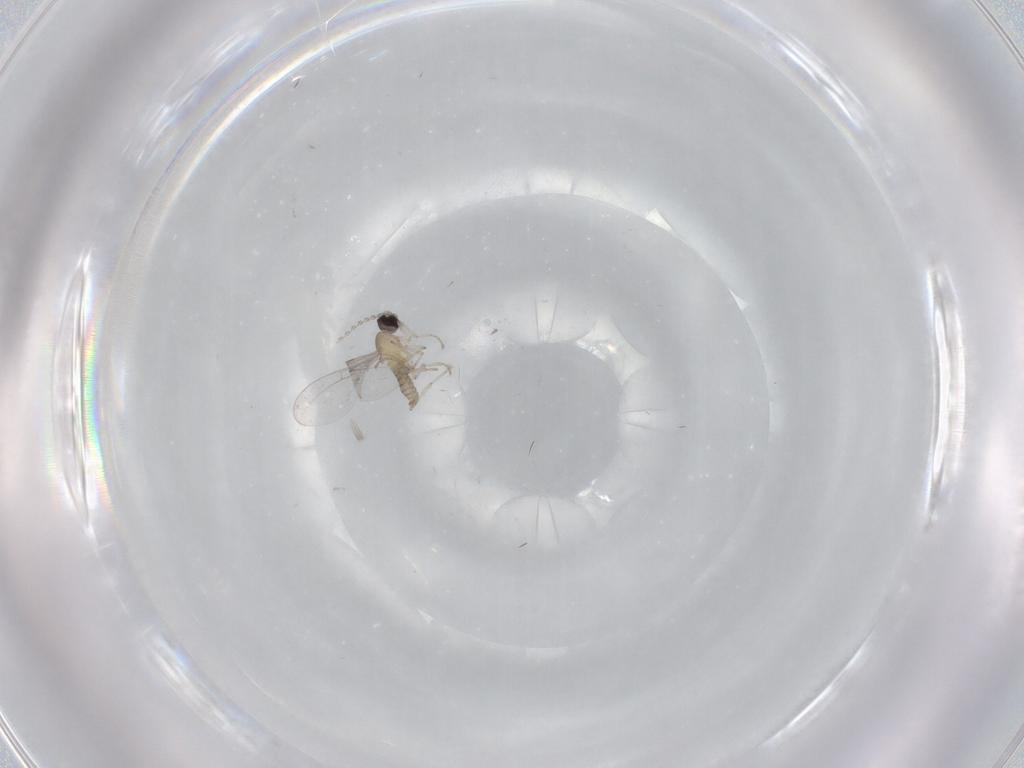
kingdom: Animalia
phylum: Arthropoda
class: Insecta
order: Diptera
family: Cecidomyiidae
